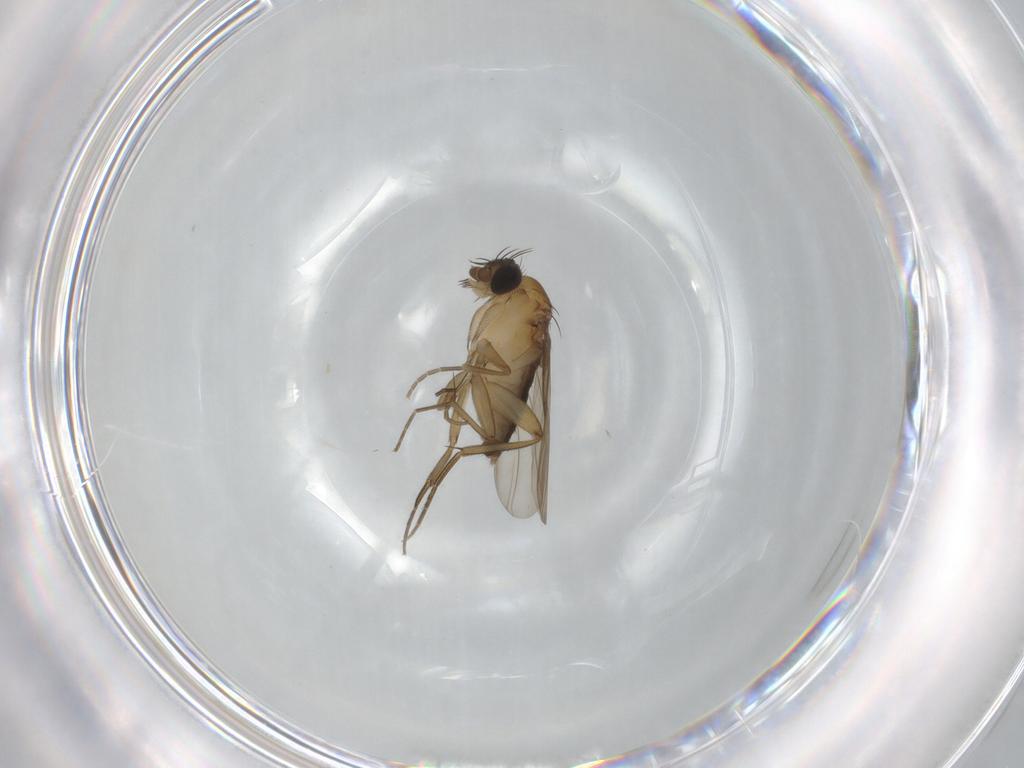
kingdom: Animalia
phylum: Arthropoda
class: Insecta
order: Diptera
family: Phoridae
